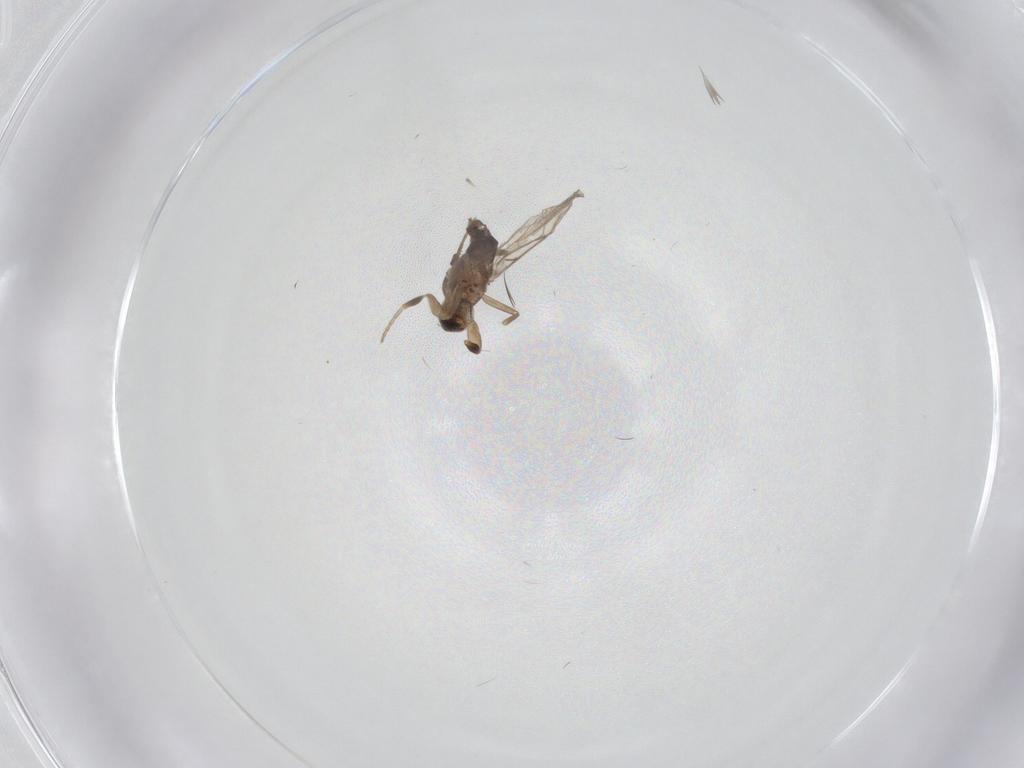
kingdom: Animalia
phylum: Arthropoda
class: Insecta
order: Diptera
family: Psychodidae
